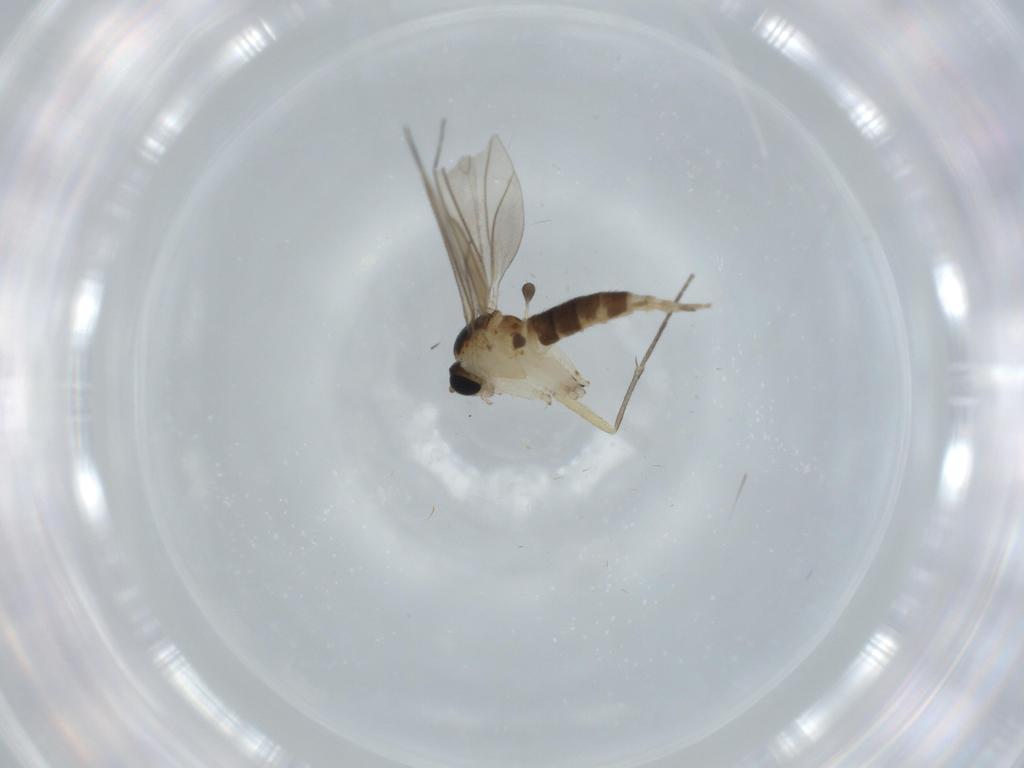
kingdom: Animalia
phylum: Arthropoda
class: Insecta
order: Diptera
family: Sciaridae
